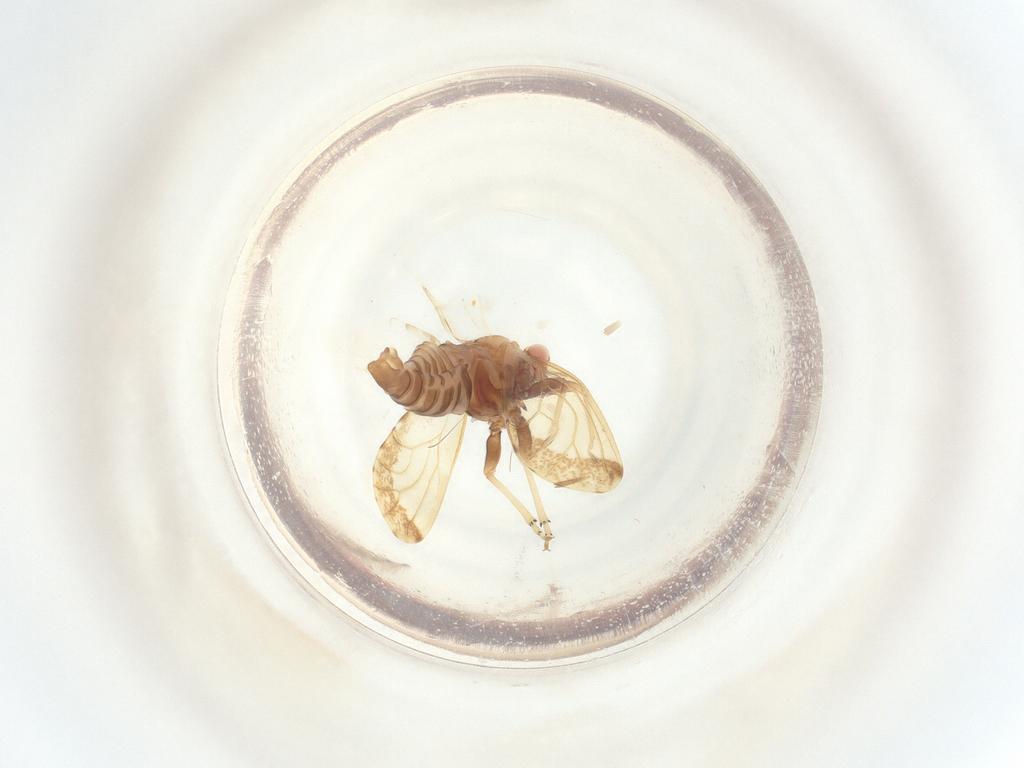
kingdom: Animalia
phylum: Arthropoda
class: Insecta
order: Hemiptera
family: Psyllidae
